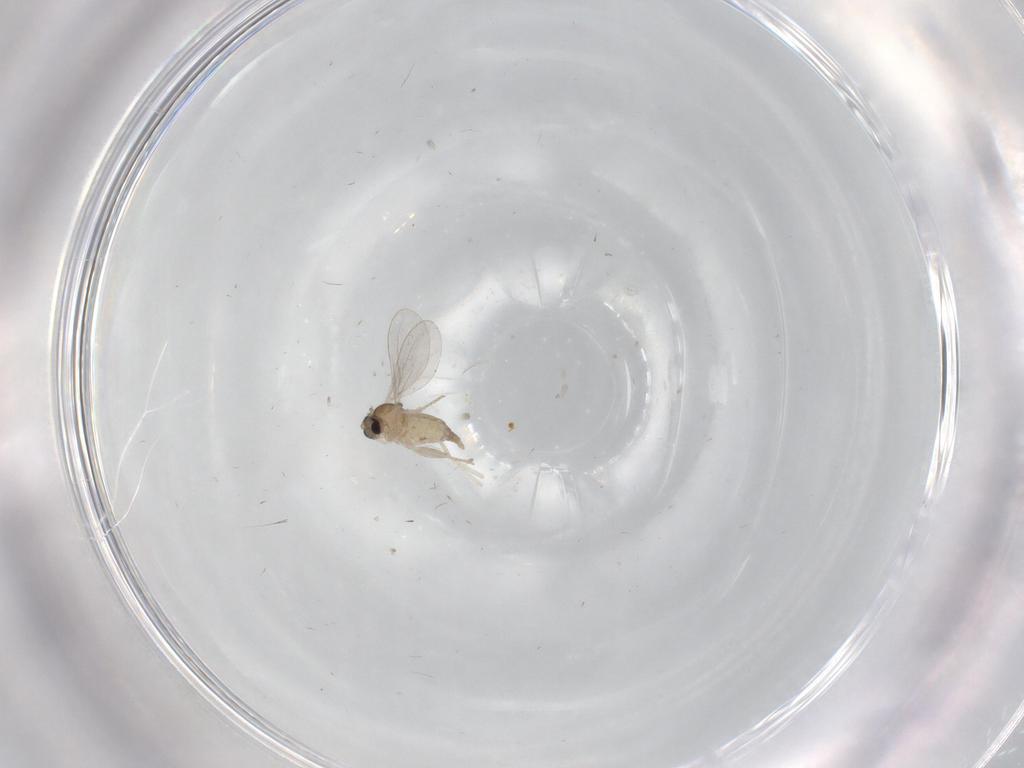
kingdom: Animalia
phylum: Arthropoda
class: Insecta
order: Diptera
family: Cecidomyiidae
